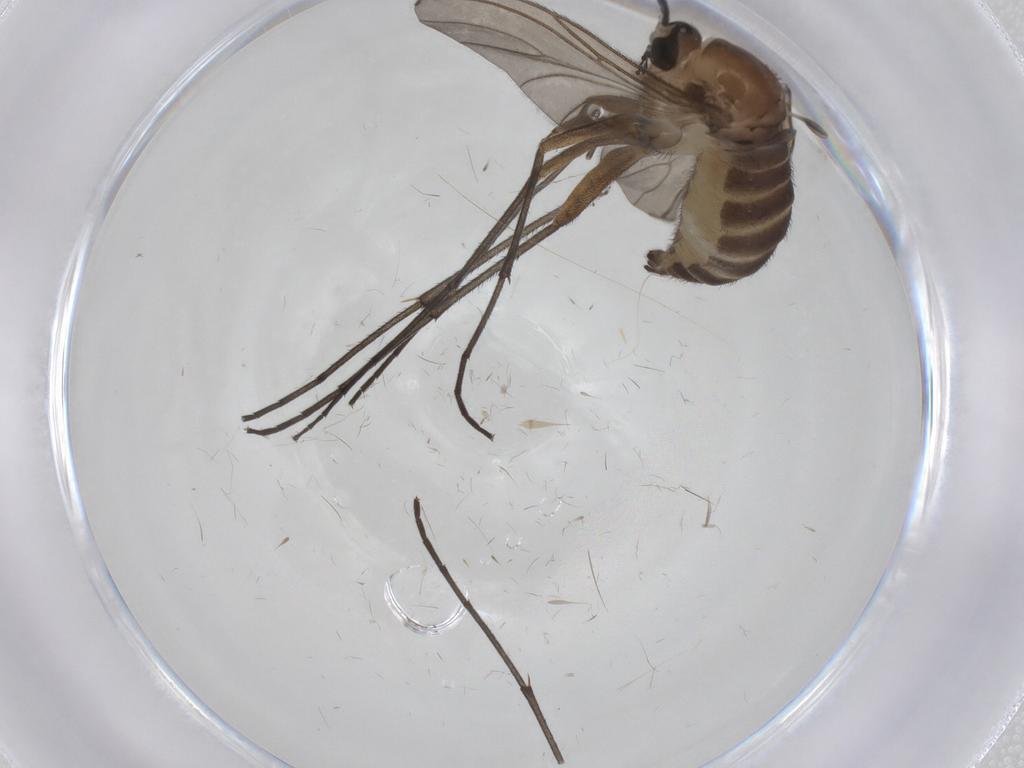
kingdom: Animalia
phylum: Arthropoda
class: Insecta
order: Diptera
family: Sciaridae
